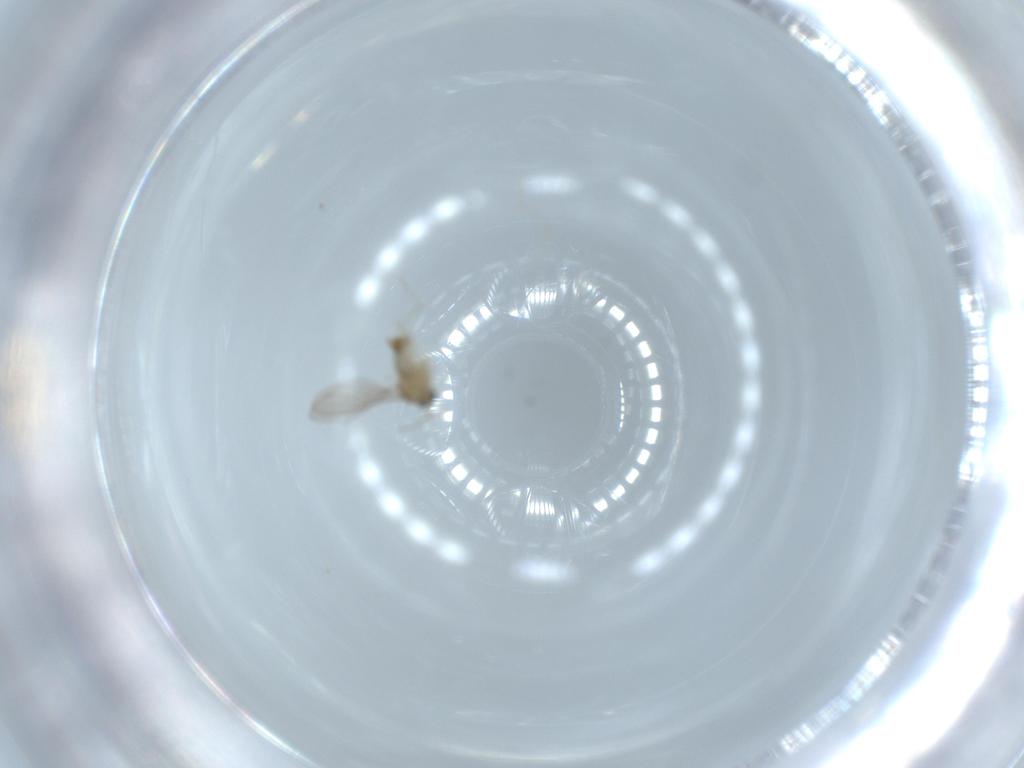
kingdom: Animalia
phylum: Arthropoda
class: Insecta
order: Diptera
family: Cecidomyiidae
